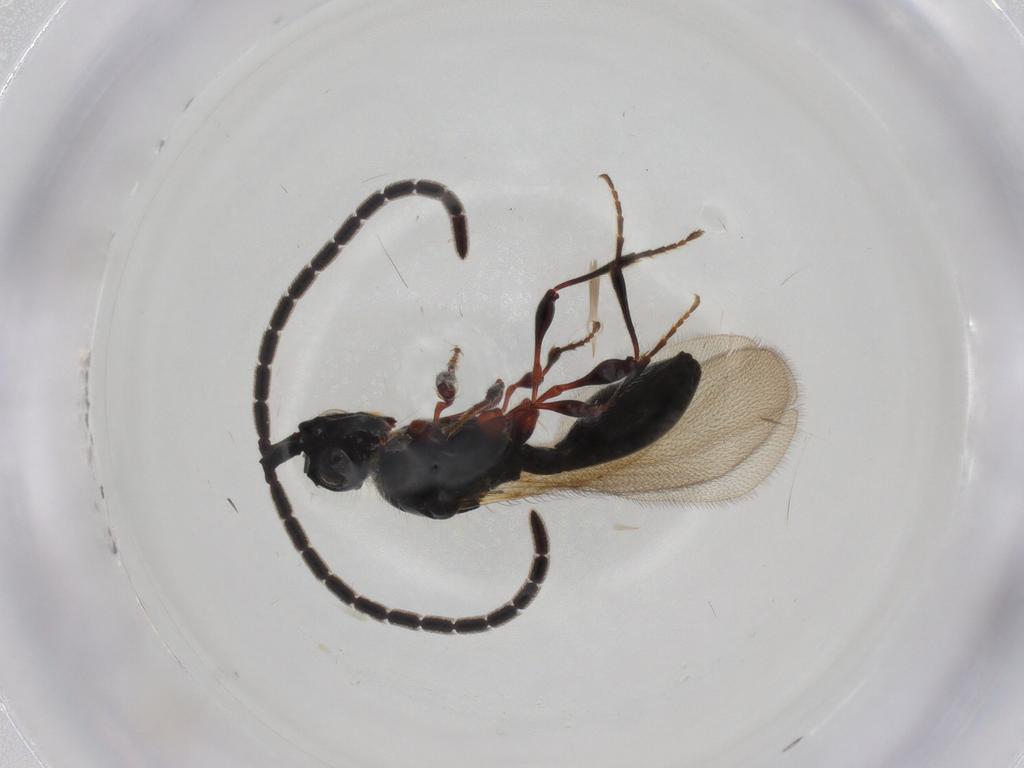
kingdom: Animalia
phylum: Arthropoda
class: Insecta
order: Hymenoptera
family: Diapriidae
